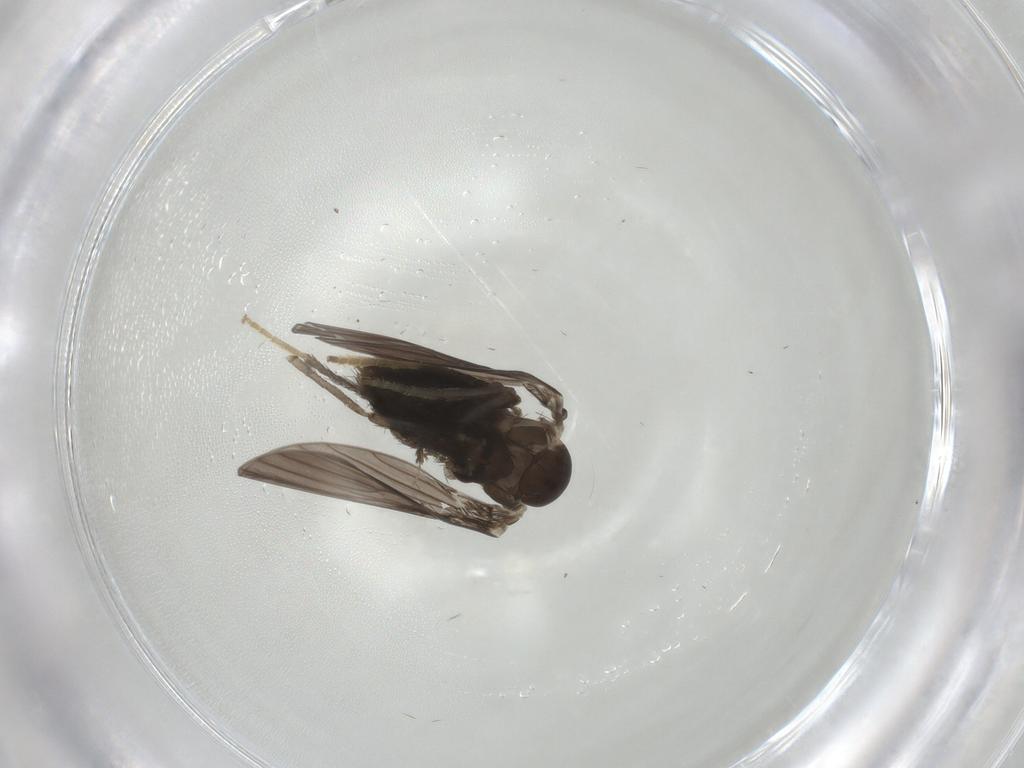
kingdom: Animalia
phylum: Arthropoda
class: Insecta
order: Diptera
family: Psychodidae
